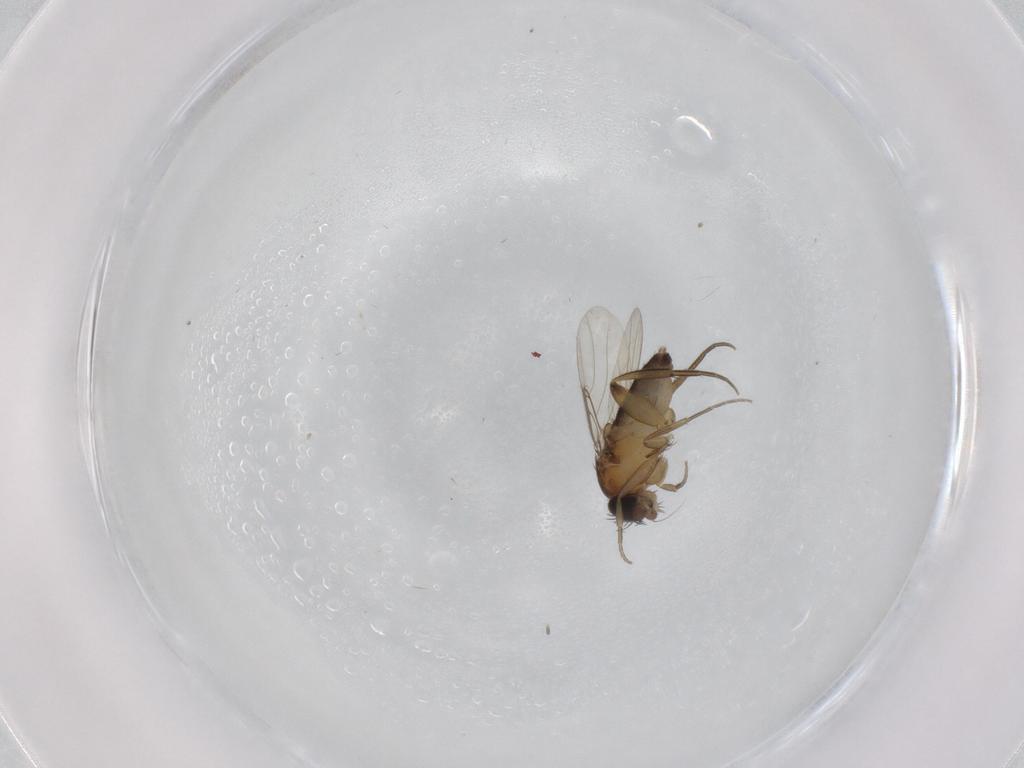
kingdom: Animalia
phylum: Arthropoda
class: Insecta
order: Diptera
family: Phoridae
